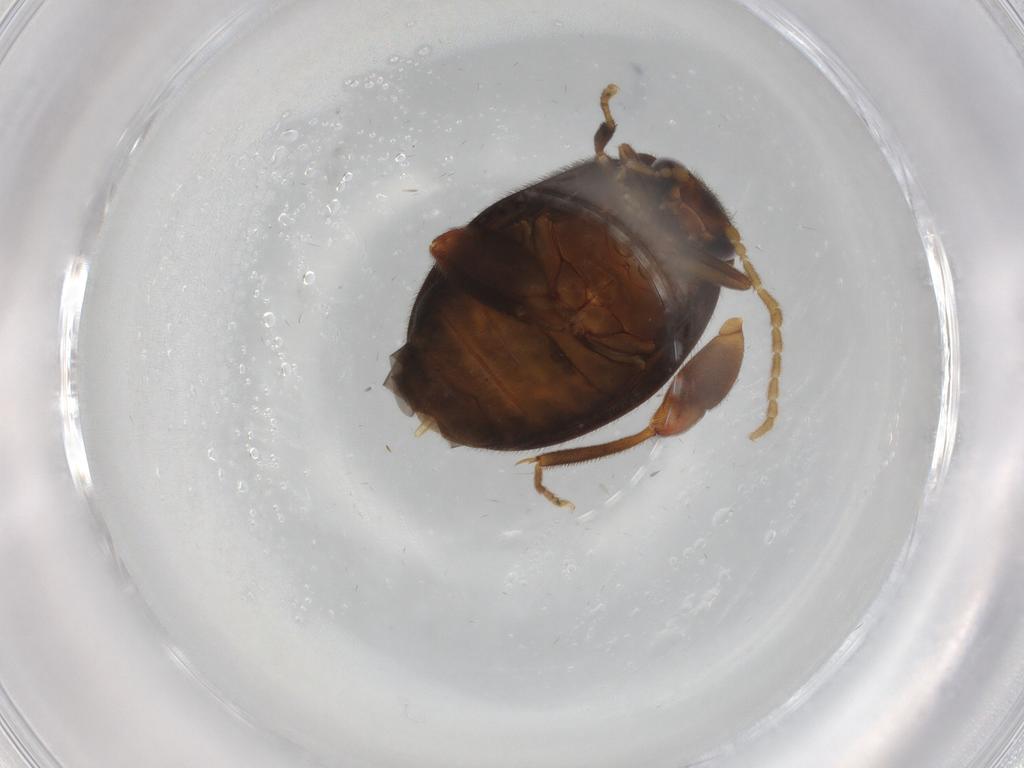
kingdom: Animalia
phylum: Arthropoda
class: Insecta
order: Coleoptera
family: Scirtidae
